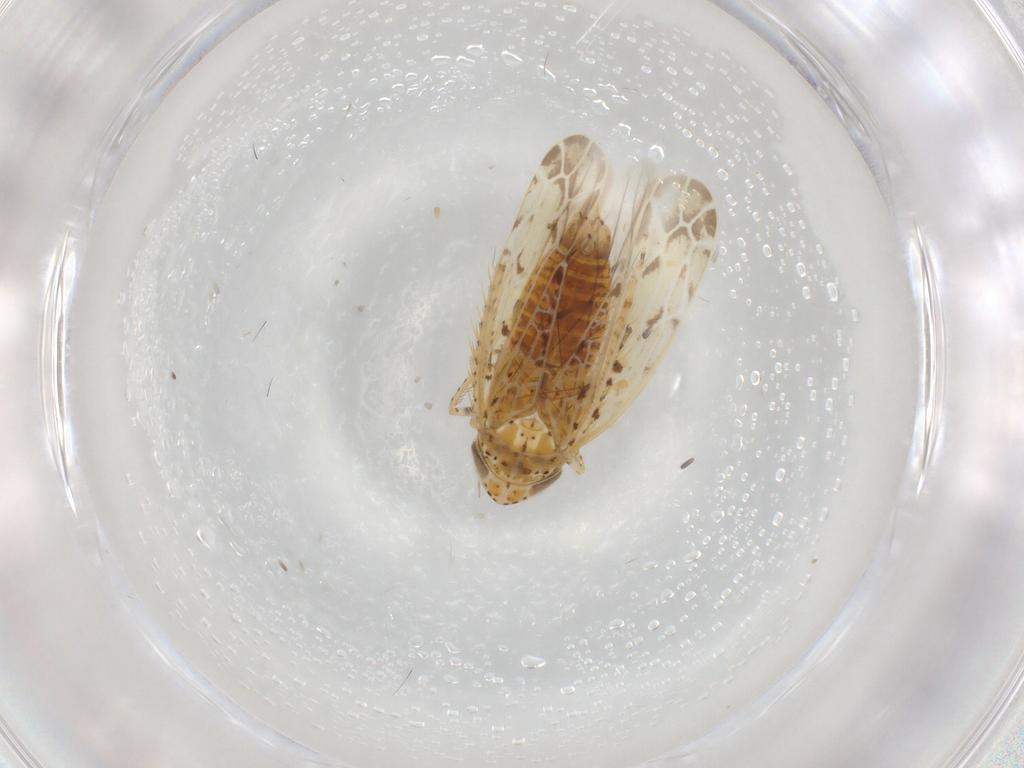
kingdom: Animalia
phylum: Arthropoda
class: Insecta
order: Hemiptera
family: Cicadellidae
